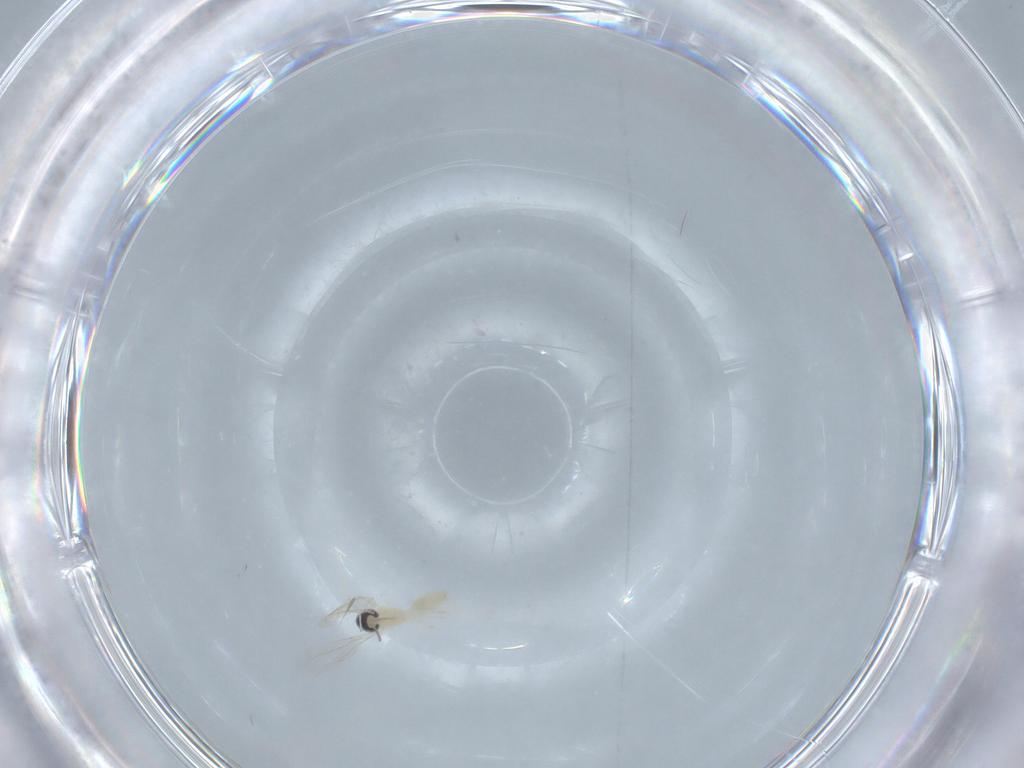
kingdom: Animalia
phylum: Arthropoda
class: Insecta
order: Diptera
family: Cecidomyiidae
